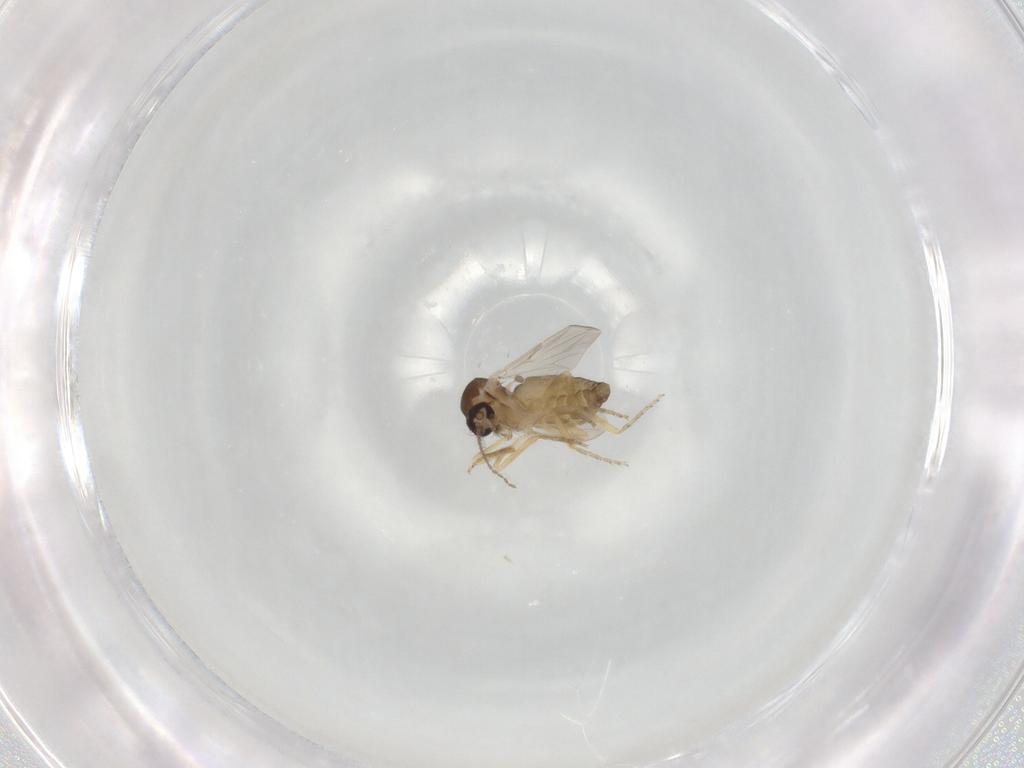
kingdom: Animalia
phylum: Arthropoda
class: Insecta
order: Diptera
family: Ceratopogonidae
